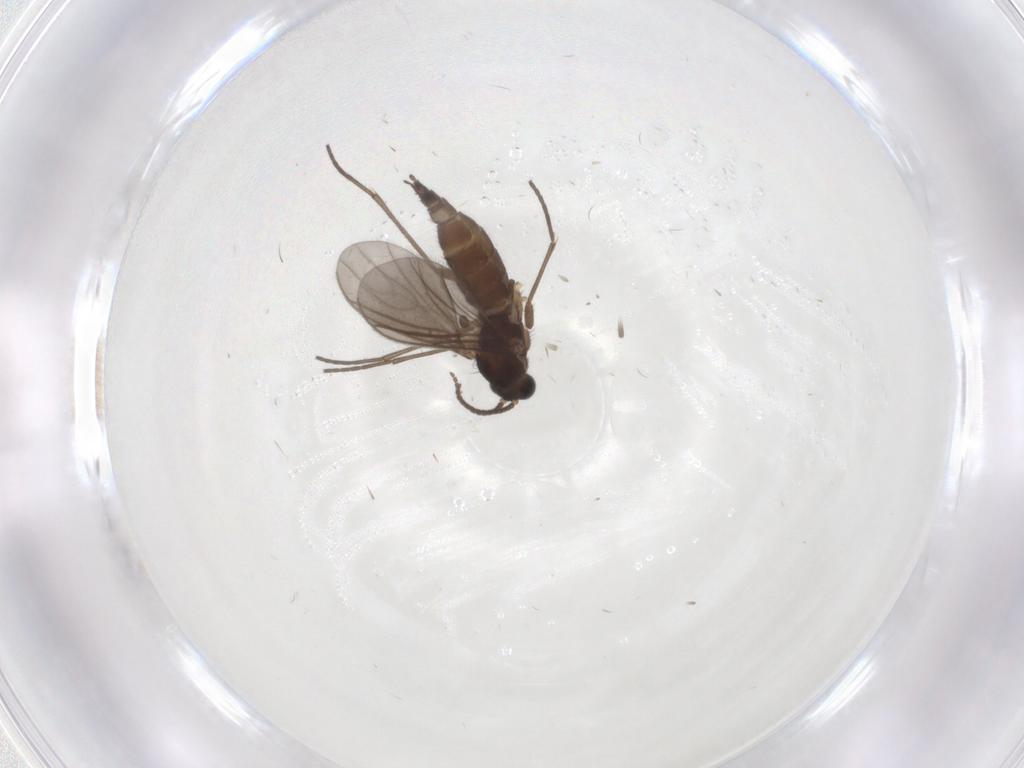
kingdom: Animalia
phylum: Arthropoda
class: Insecta
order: Diptera
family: Sciaridae
